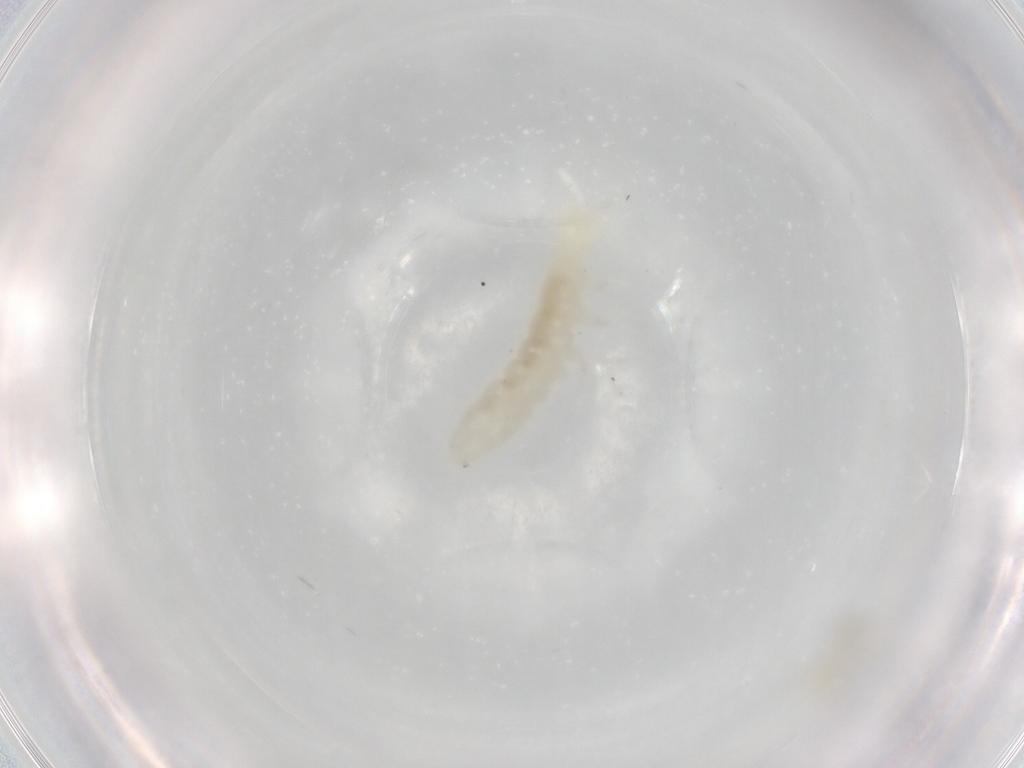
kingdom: Animalia
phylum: Arthropoda
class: Collembola
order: Poduromorpha
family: Onychiuridae
